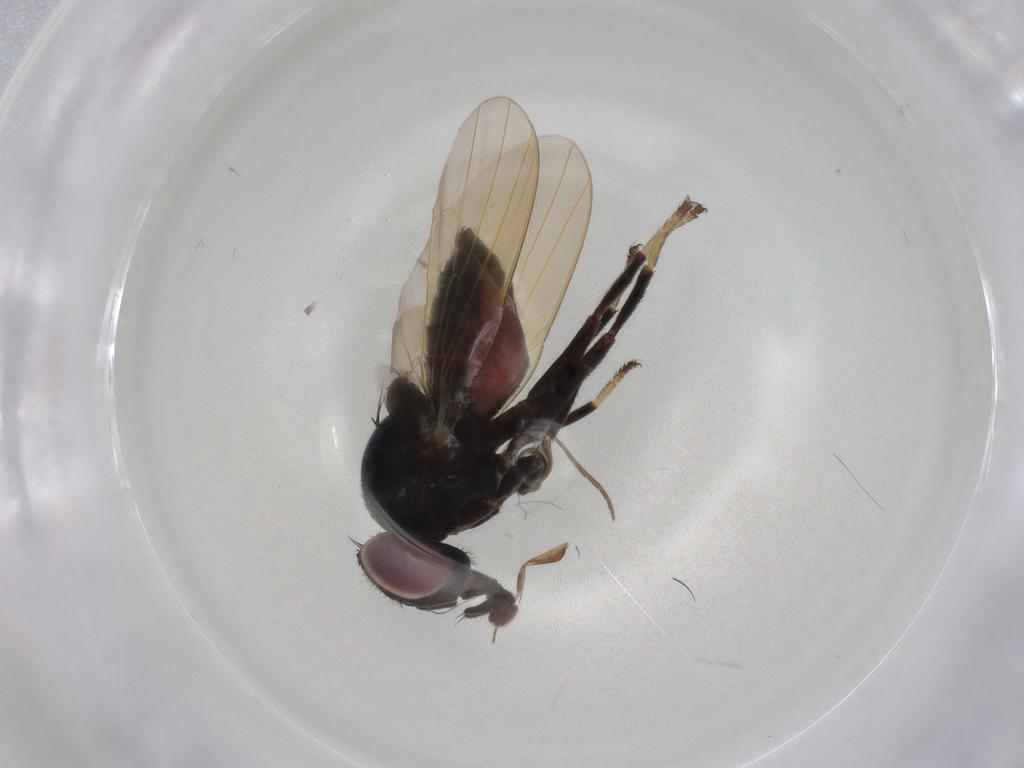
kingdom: Animalia
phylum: Arthropoda
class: Insecta
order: Diptera
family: Lonchaeidae
